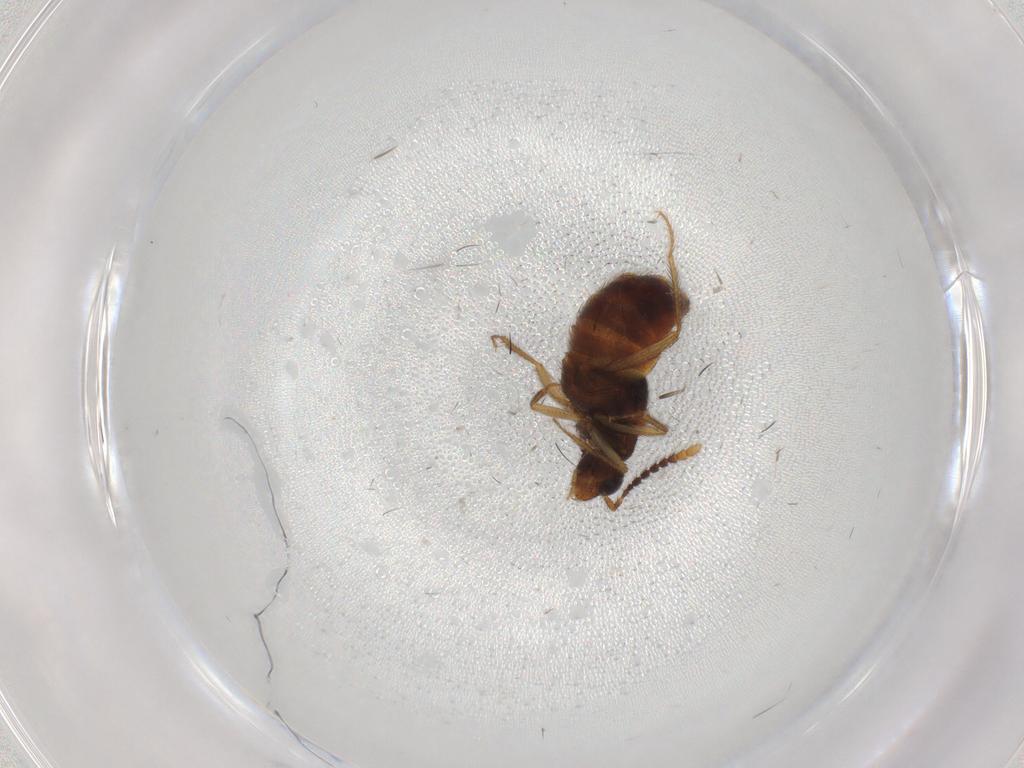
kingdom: Animalia
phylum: Arthropoda
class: Insecta
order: Coleoptera
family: Staphylinidae
